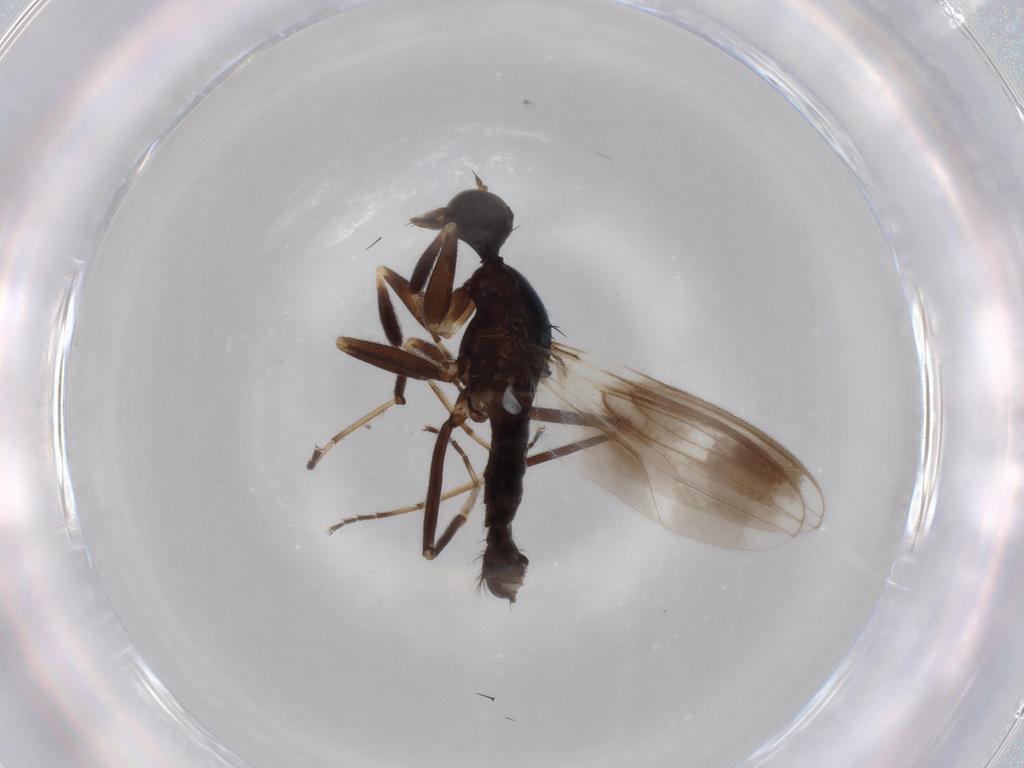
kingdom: Animalia
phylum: Arthropoda
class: Insecta
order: Diptera
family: Hybotidae
